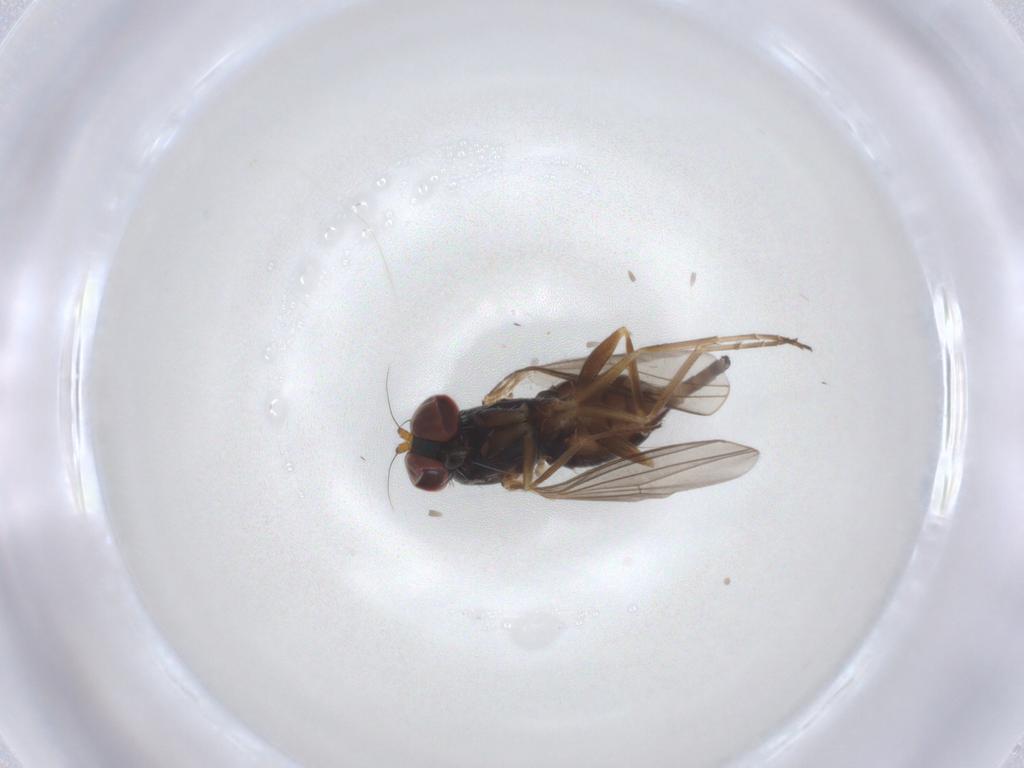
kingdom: Animalia
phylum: Arthropoda
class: Insecta
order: Diptera
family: Dolichopodidae
